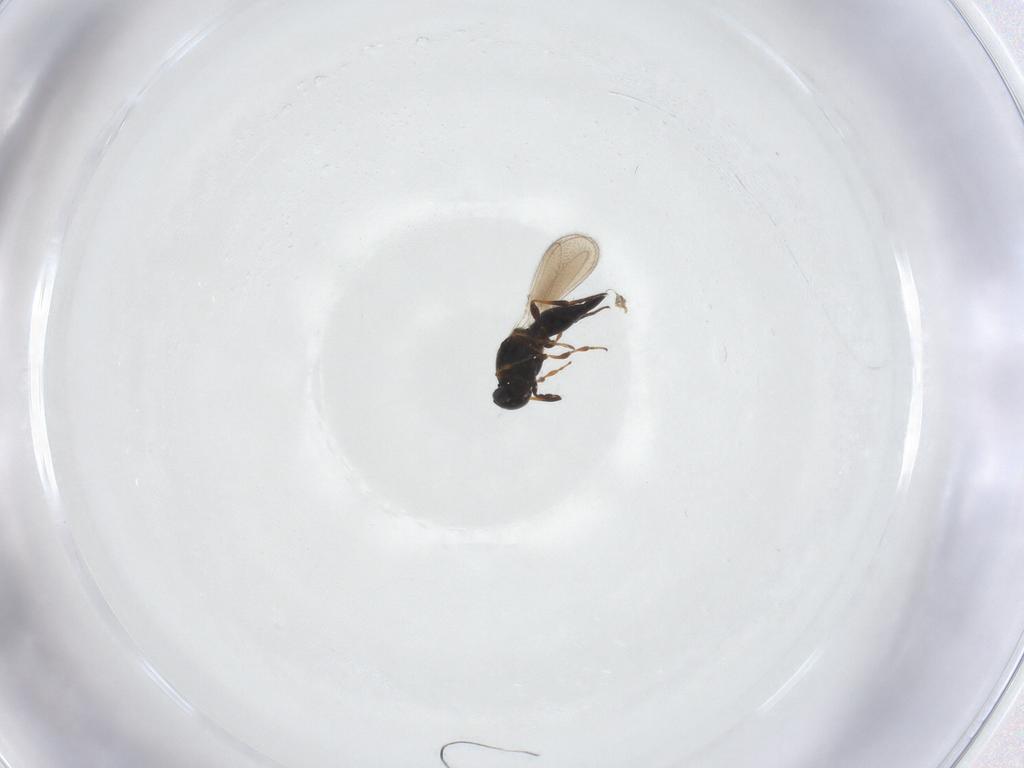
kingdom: Animalia
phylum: Arthropoda
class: Insecta
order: Hymenoptera
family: Platygastridae
